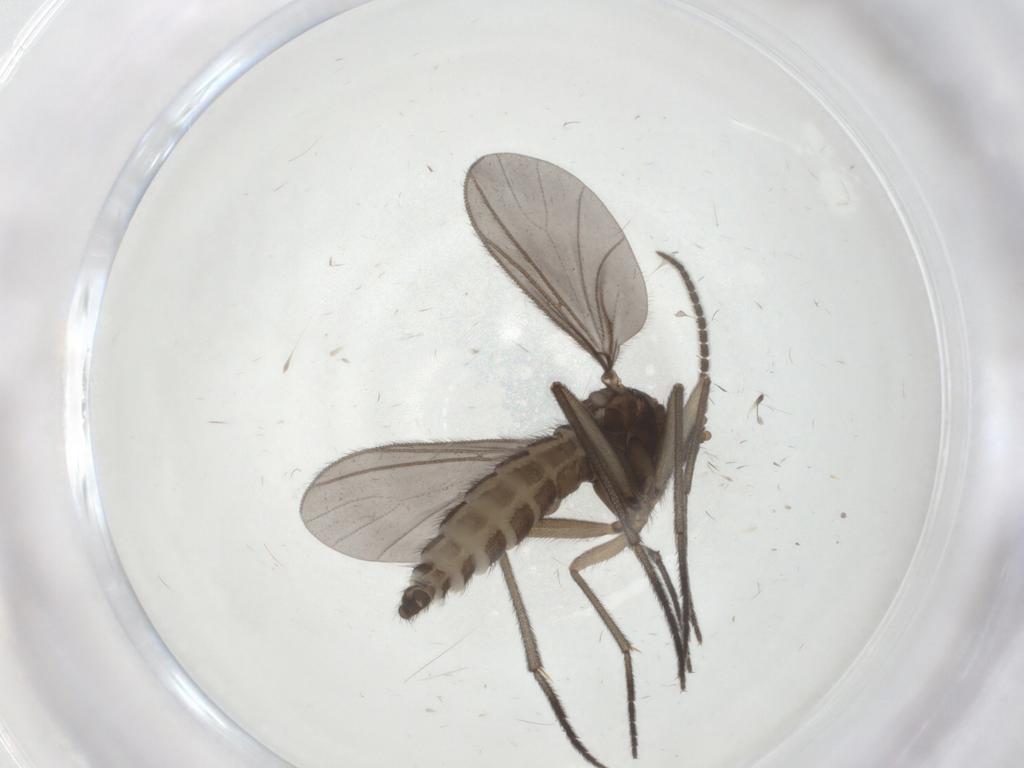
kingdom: Animalia
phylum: Arthropoda
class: Insecta
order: Diptera
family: Sciaridae
